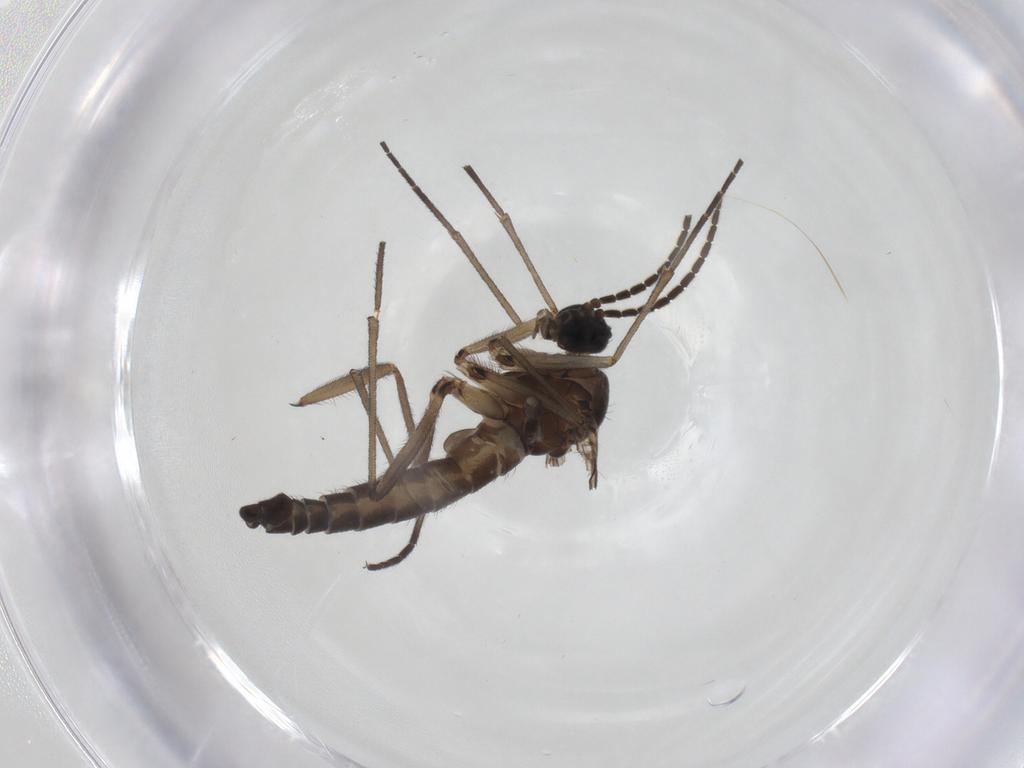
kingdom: Animalia
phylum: Arthropoda
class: Insecta
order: Diptera
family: Sciaridae
